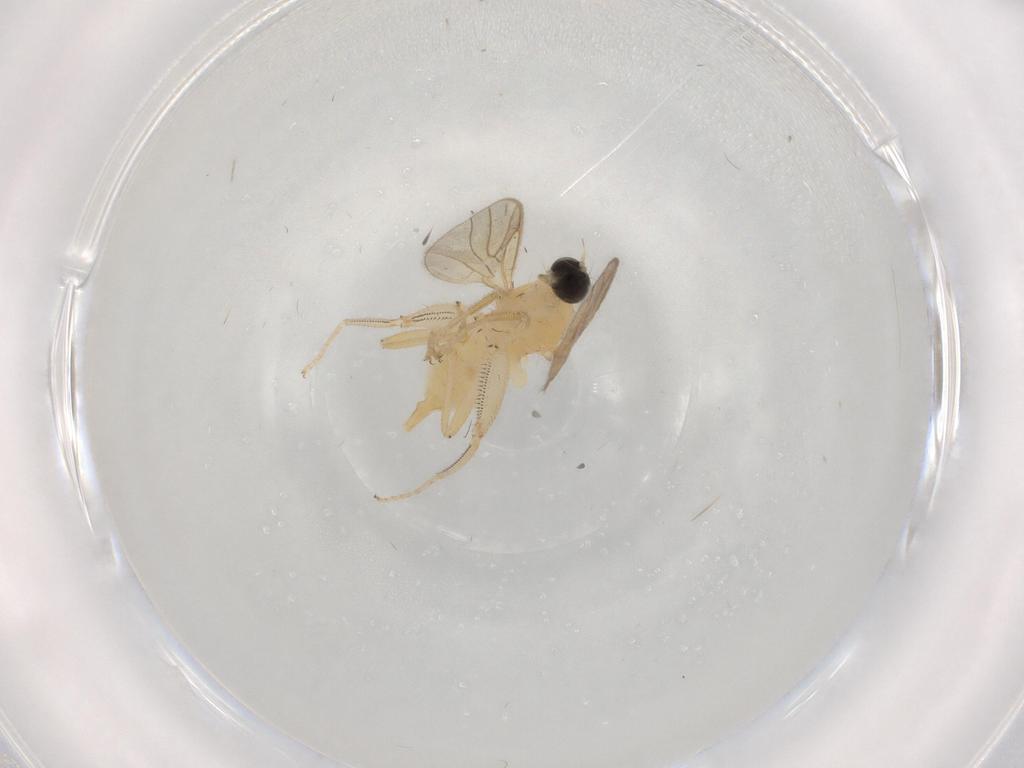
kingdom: Animalia
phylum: Arthropoda
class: Insecta
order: Diptera
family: Hybotidae
